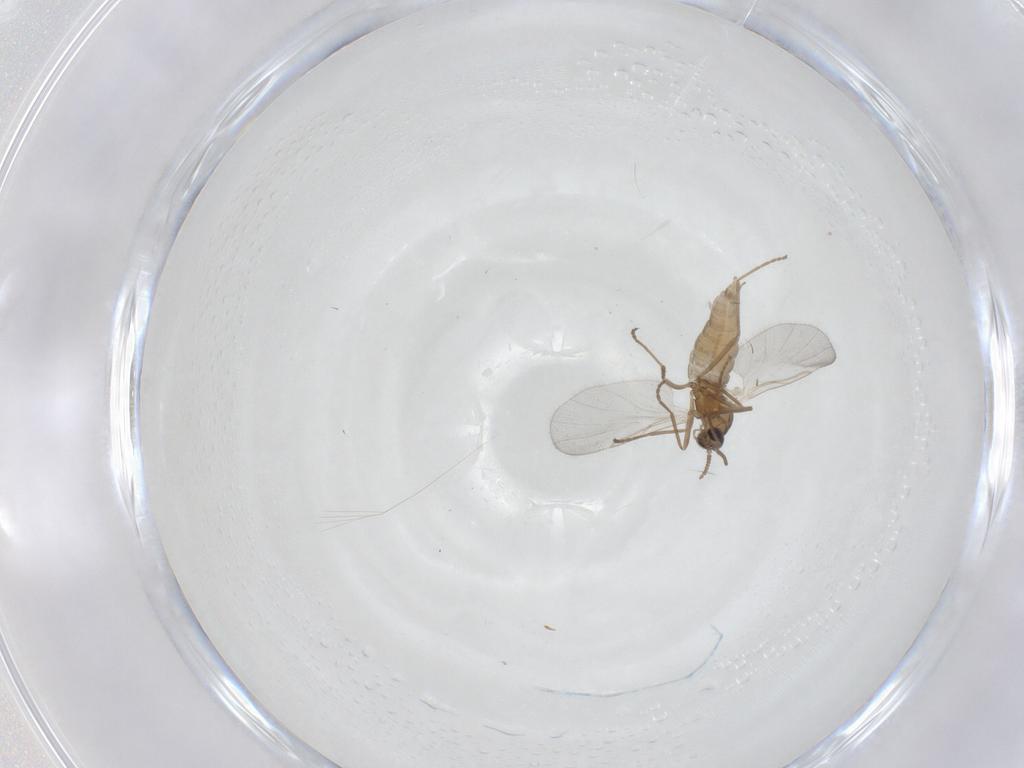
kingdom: Animalia
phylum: Arthropoda
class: Insecta
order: Diptera
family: Cecidomyiidae
